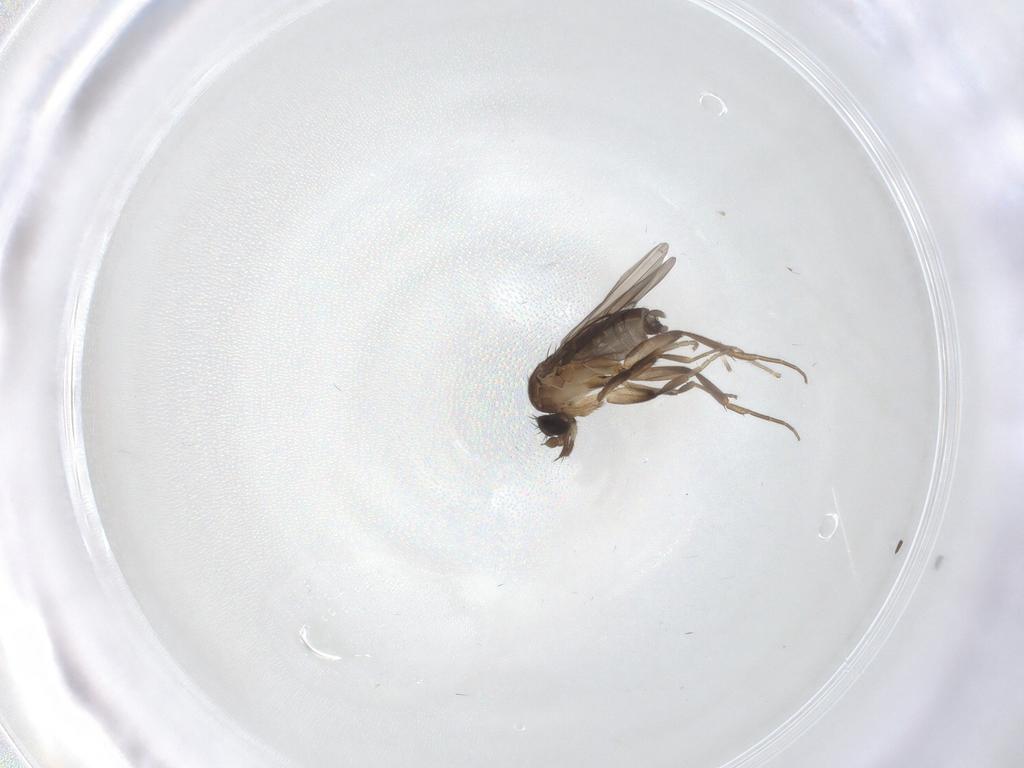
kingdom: Animalia
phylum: Arthropoda
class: Insecta
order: Diptera
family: Phoridae
